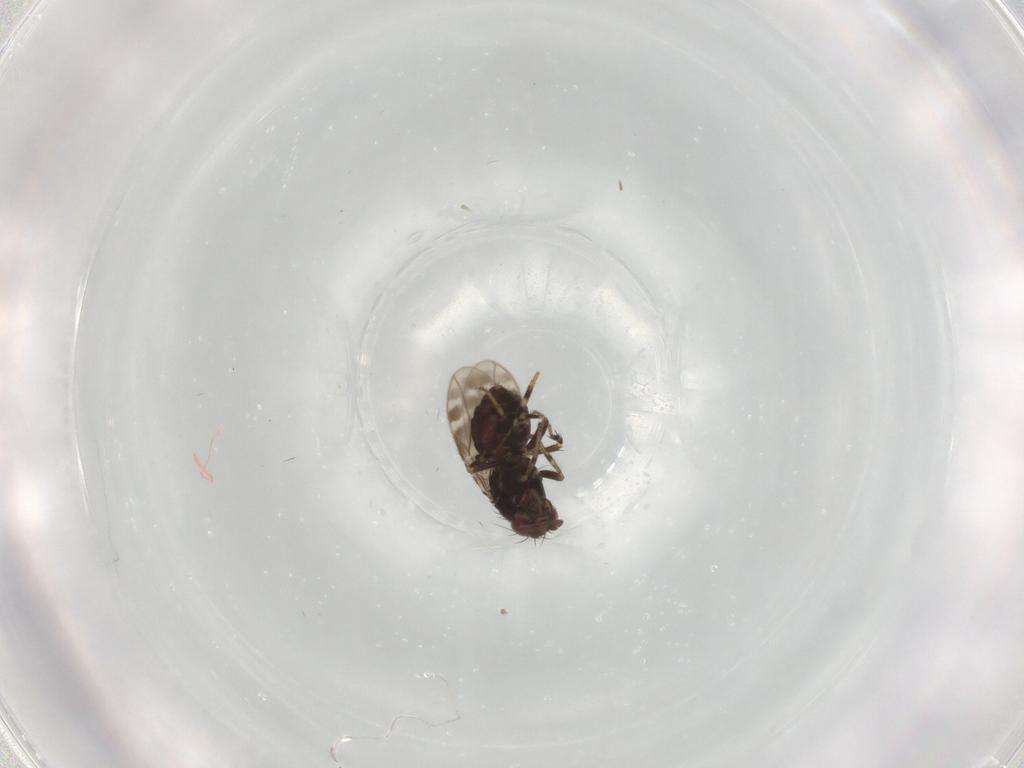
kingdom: Animalia
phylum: Arthropoda
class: Insecta
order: Diptera
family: Sphaeroceridae
